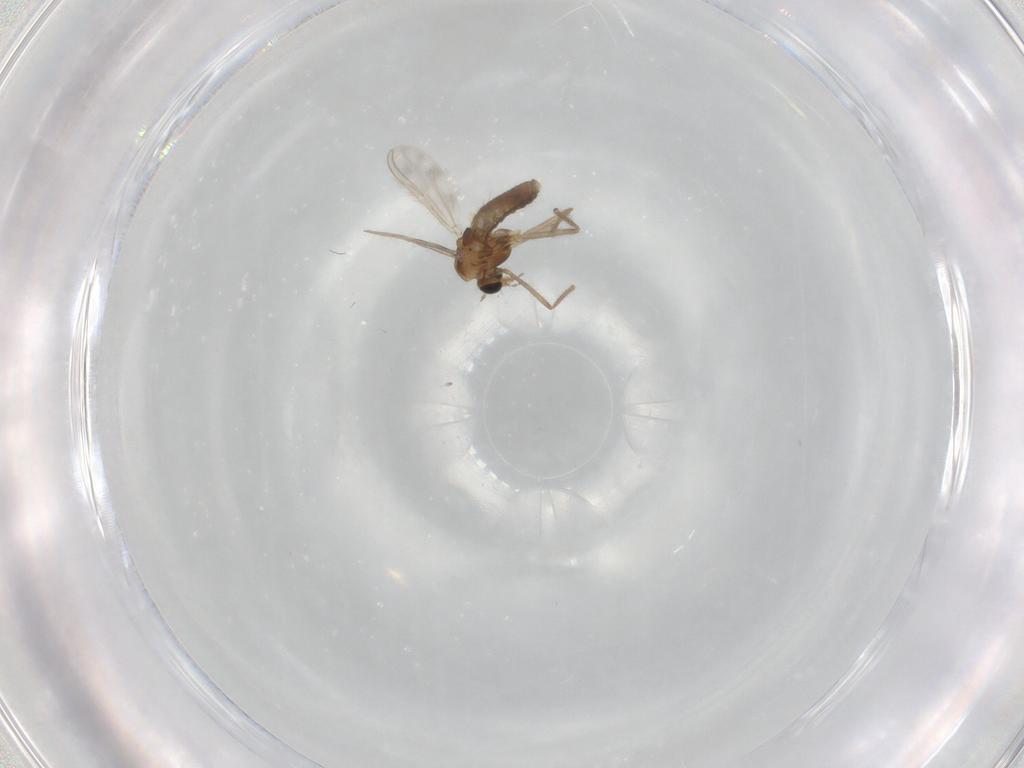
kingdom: Animalia
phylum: Arthropoda
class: Insecta
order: Diptera
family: Chironomidae
